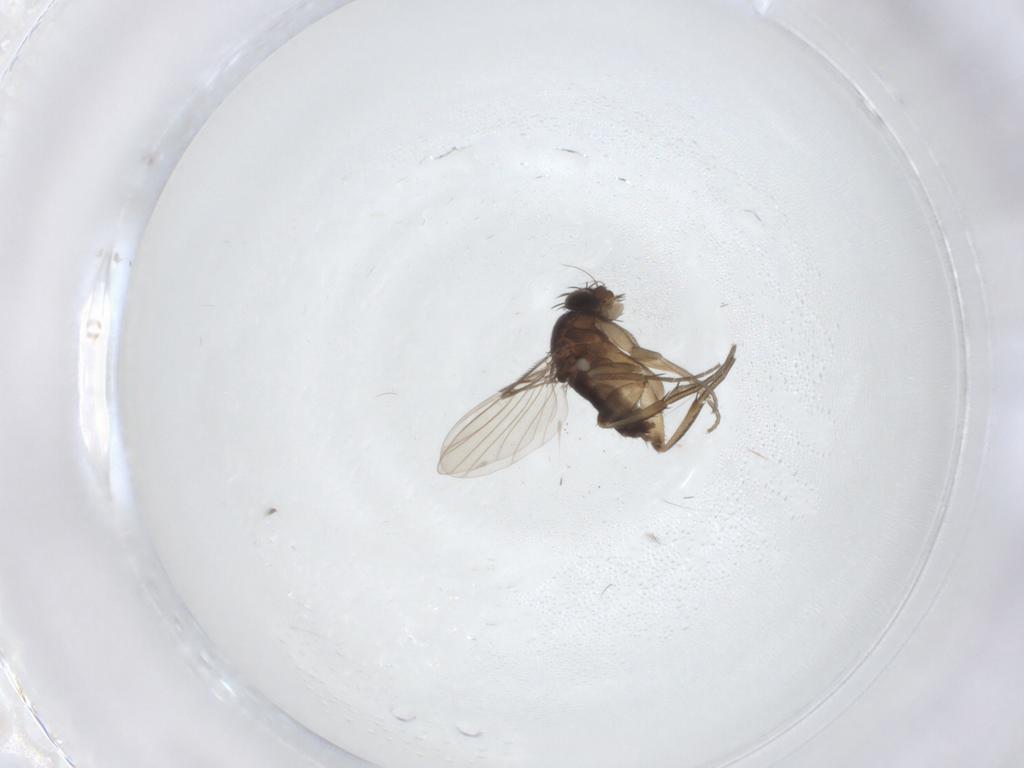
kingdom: Animalia
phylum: Arthropoda
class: Insecta
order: Diptera
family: Phoridae
